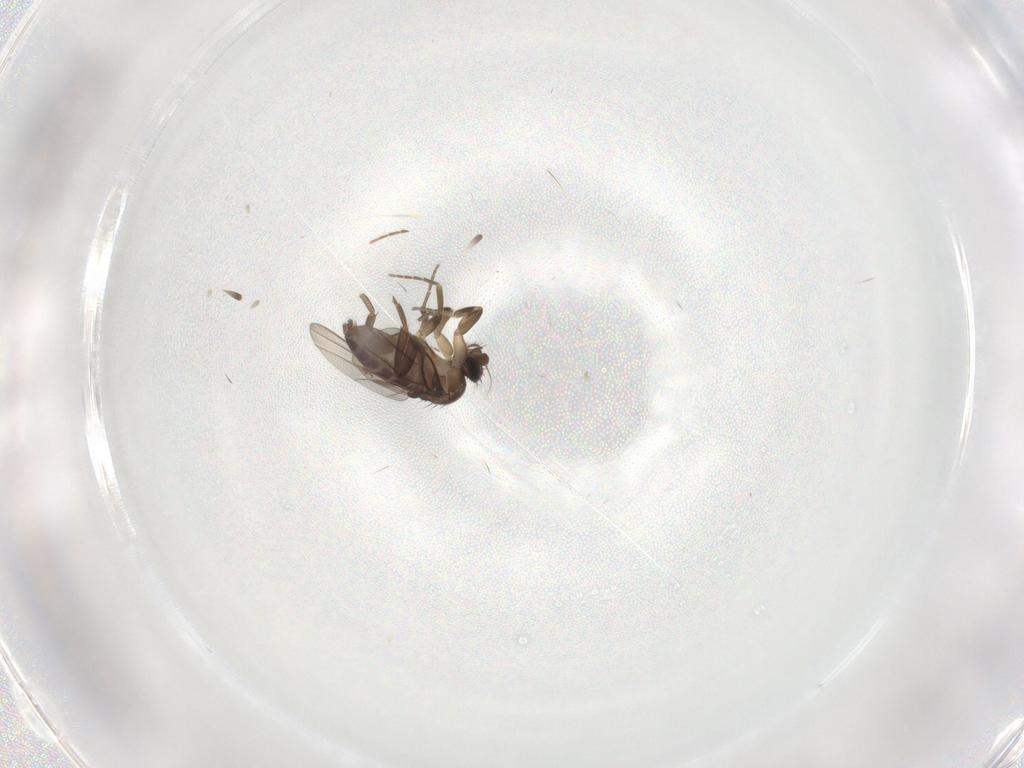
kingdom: Animalia
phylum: Arthropoda
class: Insecta
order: Diptera
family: Phoridae
